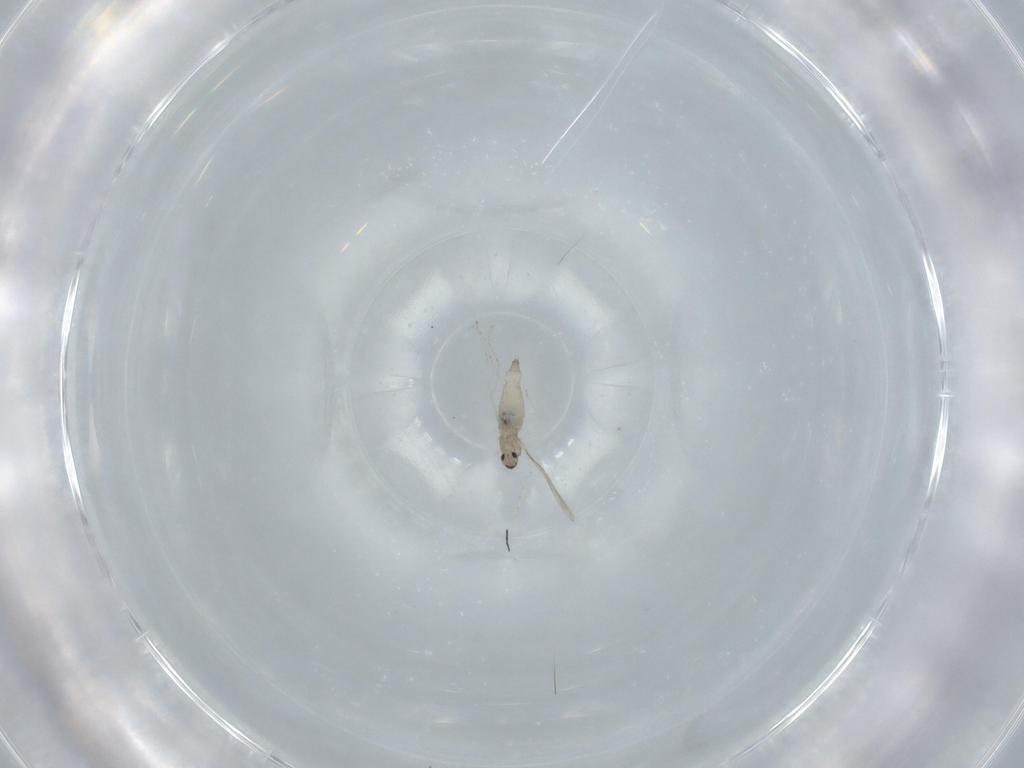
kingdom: Animalia
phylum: Arthropoda
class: Insecta
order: Diptera
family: Cecidomyiidae
